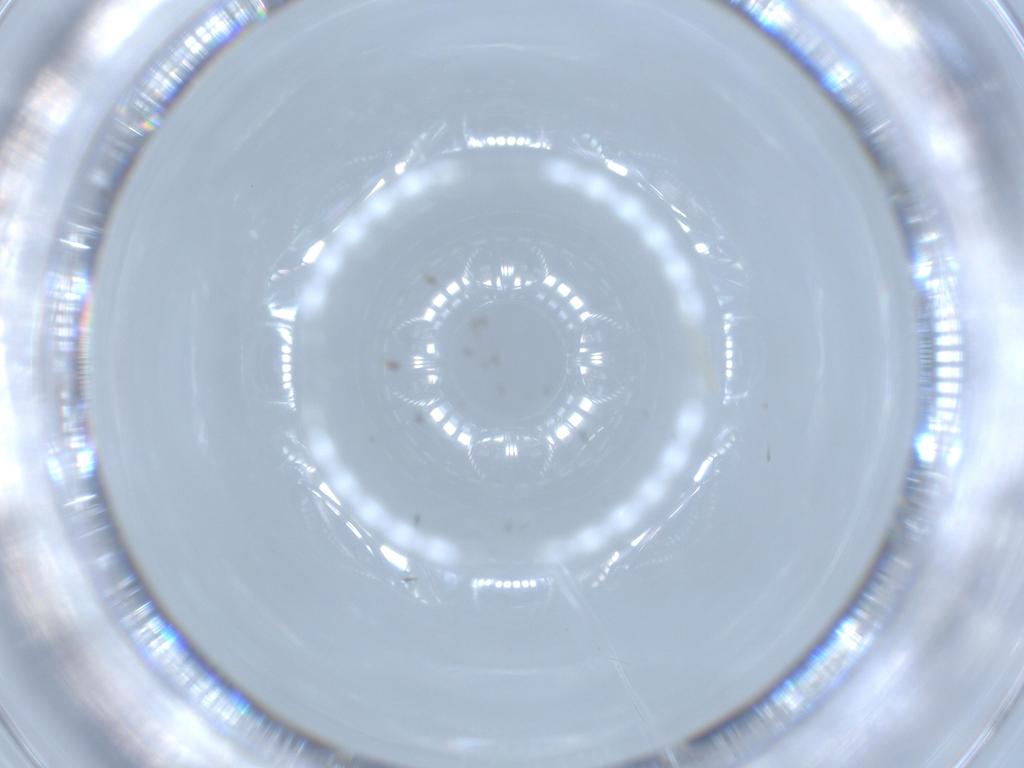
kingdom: Animalia
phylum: Arthropoda
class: Insecta
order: Diptera
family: Cecidomyiidae
